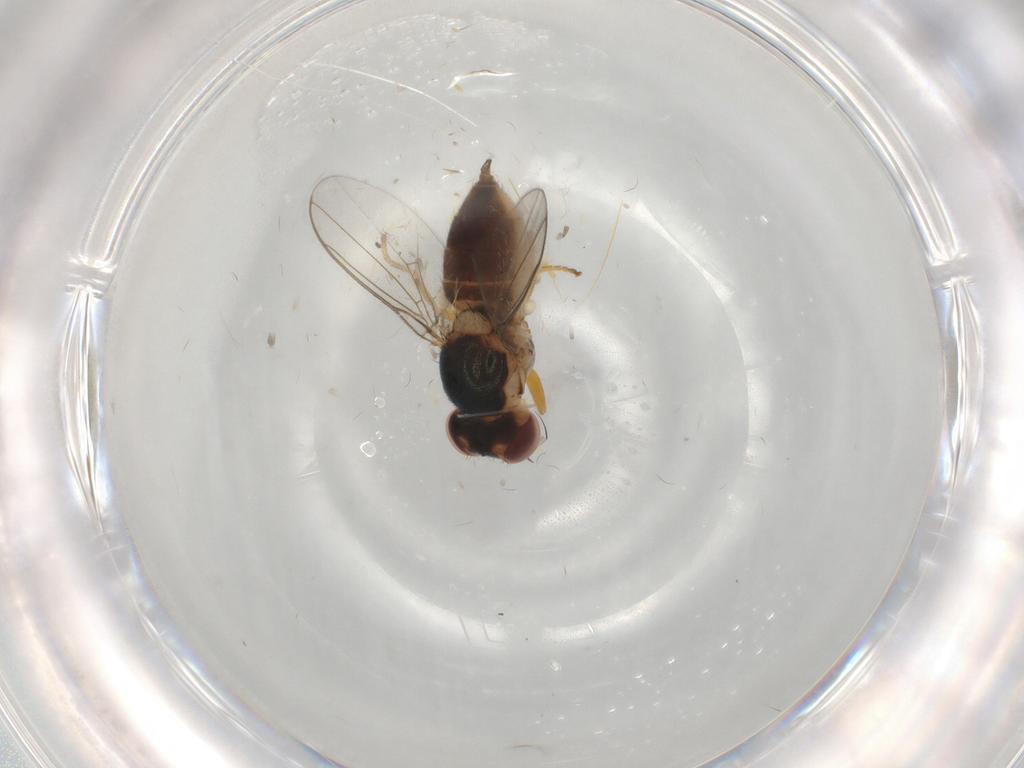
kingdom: Animalia
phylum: Arthropoda
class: Insecta
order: Diptera
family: Chloropidae
